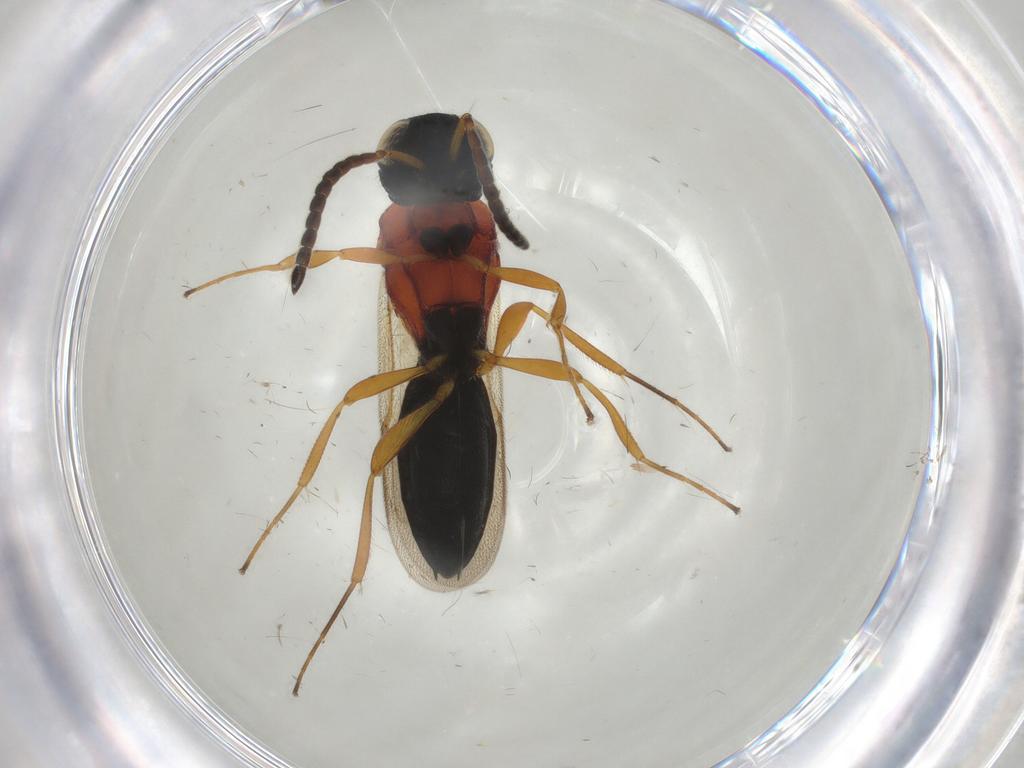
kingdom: Animalia
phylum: Arthropoda
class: Insecta
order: Hymenoptera
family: Scelionidae
